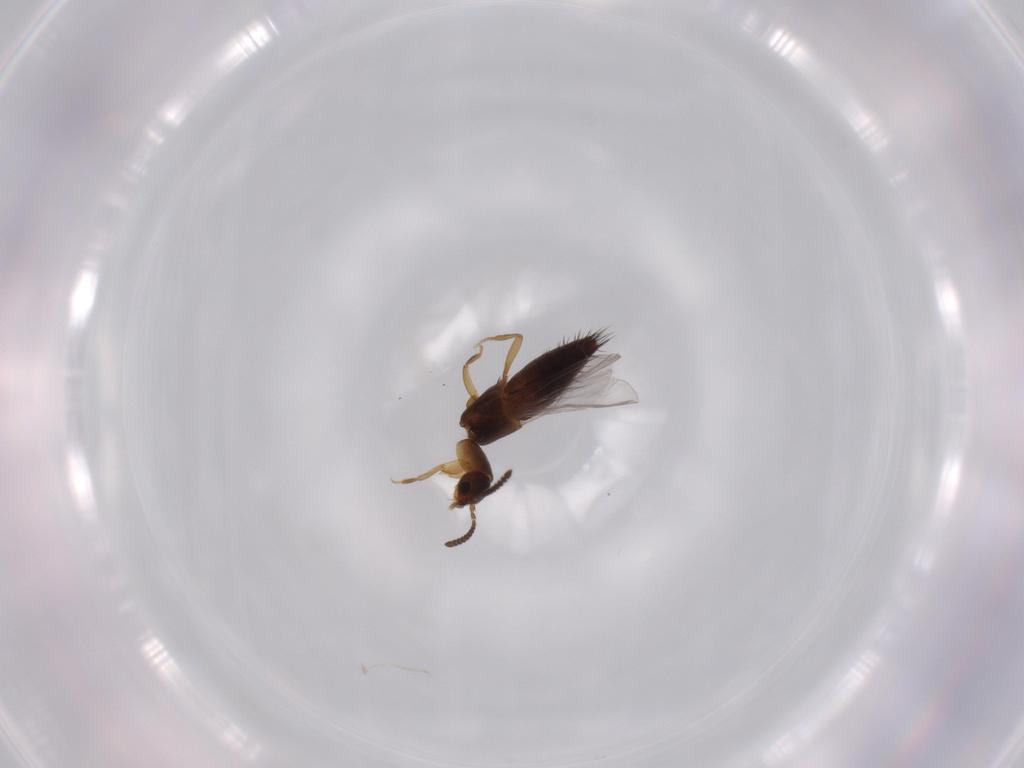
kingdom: Animalia
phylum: Arthropoda
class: Insecta
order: Coleoptera
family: Staphylinidae
